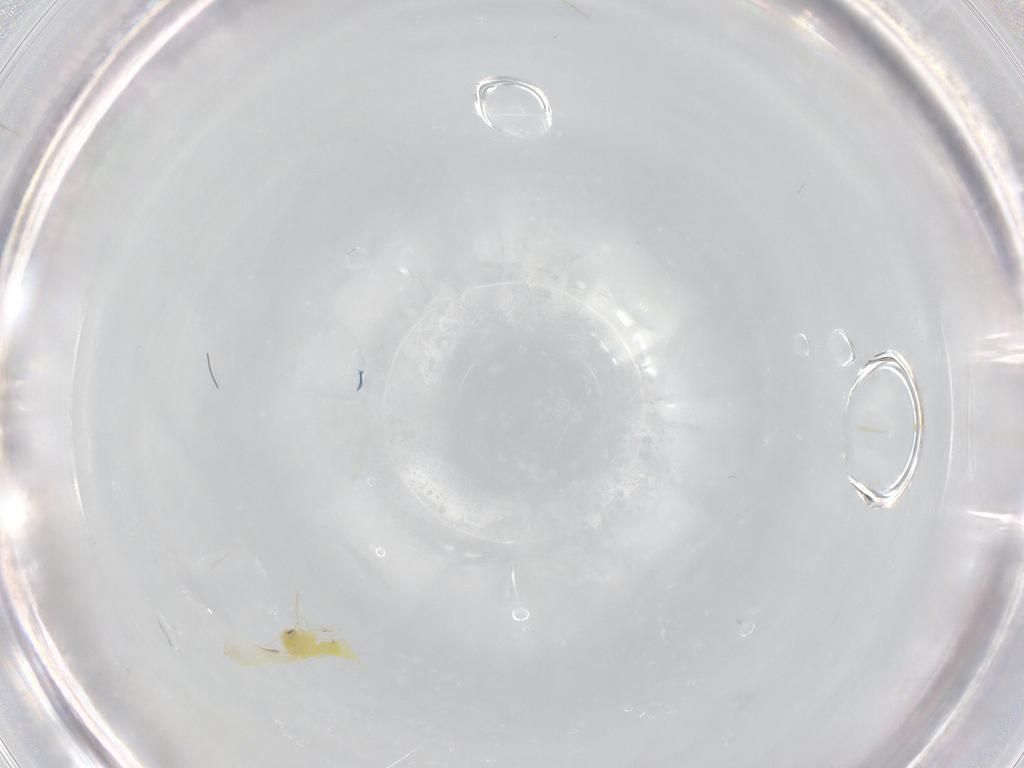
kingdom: Animalia
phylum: Arthropoda
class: Insecta
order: Hemiptera
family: Aleyrodidae
